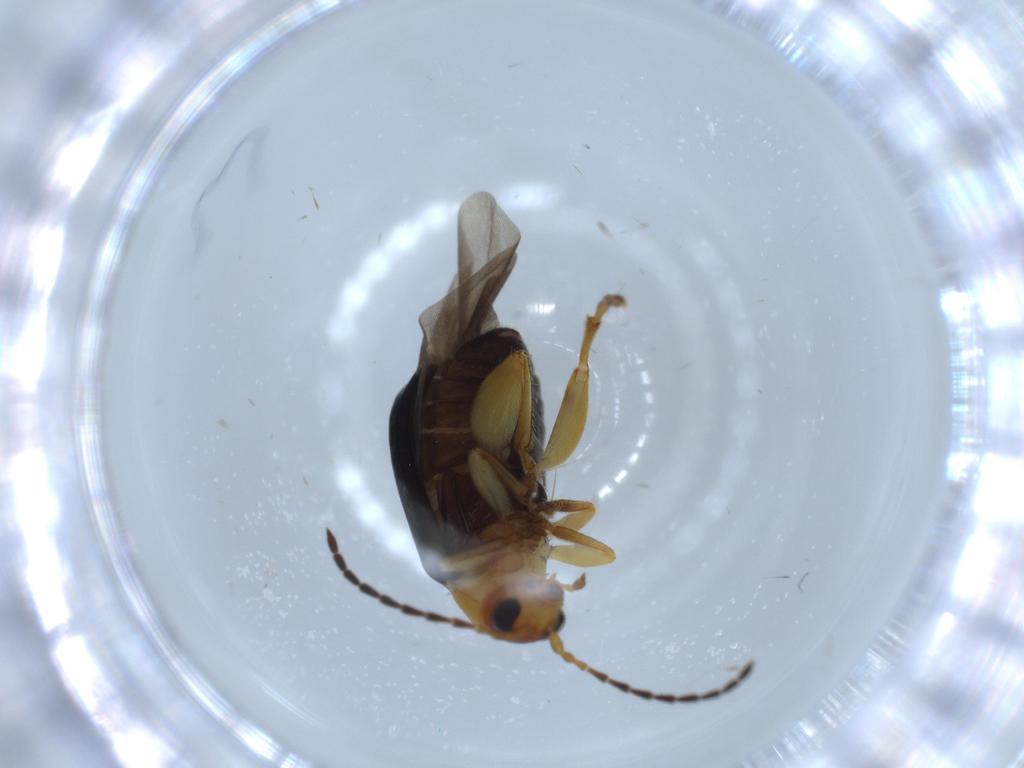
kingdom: Animalia
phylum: Arthropoda
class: Insecta
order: Coleoptera
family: Chrysomelidae
